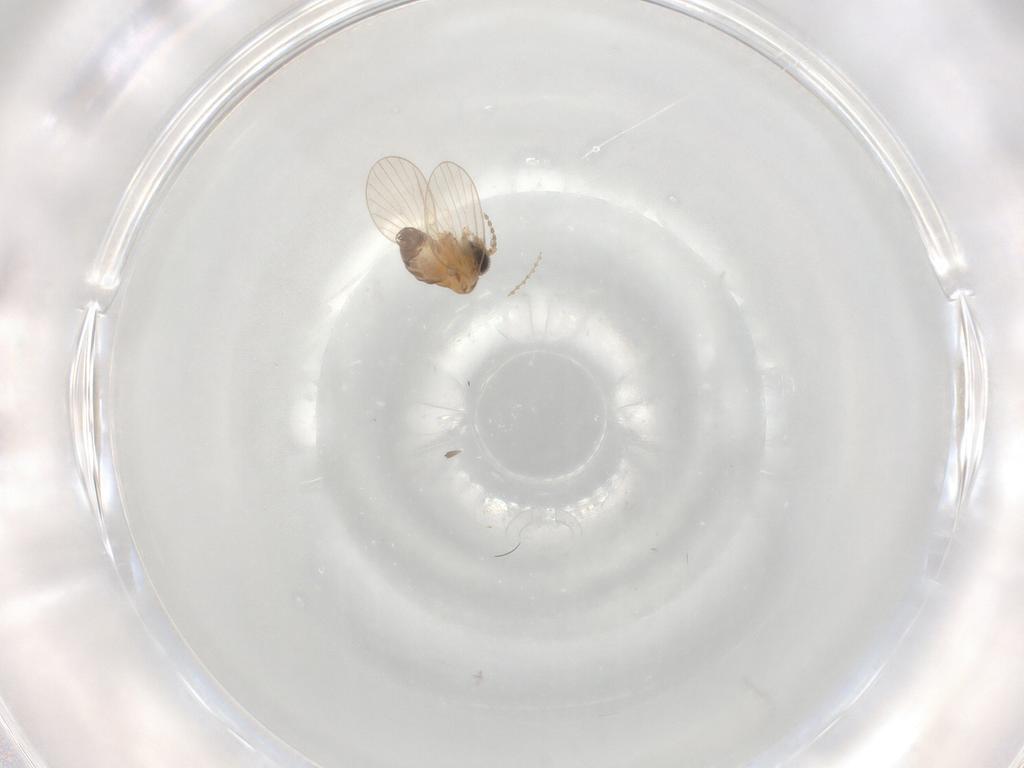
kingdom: Animalia
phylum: Arthropoda
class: Insecta
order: Diptera
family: Psychodidae
